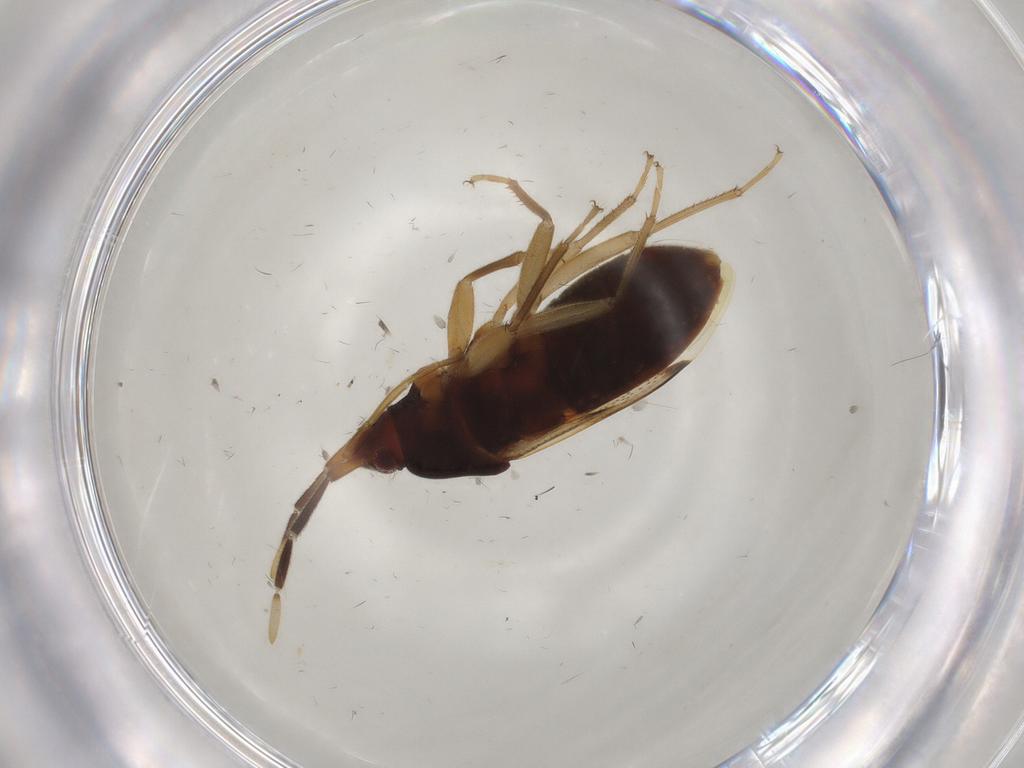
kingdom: Animalia
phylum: Arthropoda
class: Insecta
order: Hemiptera
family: Rhyparochromidae
